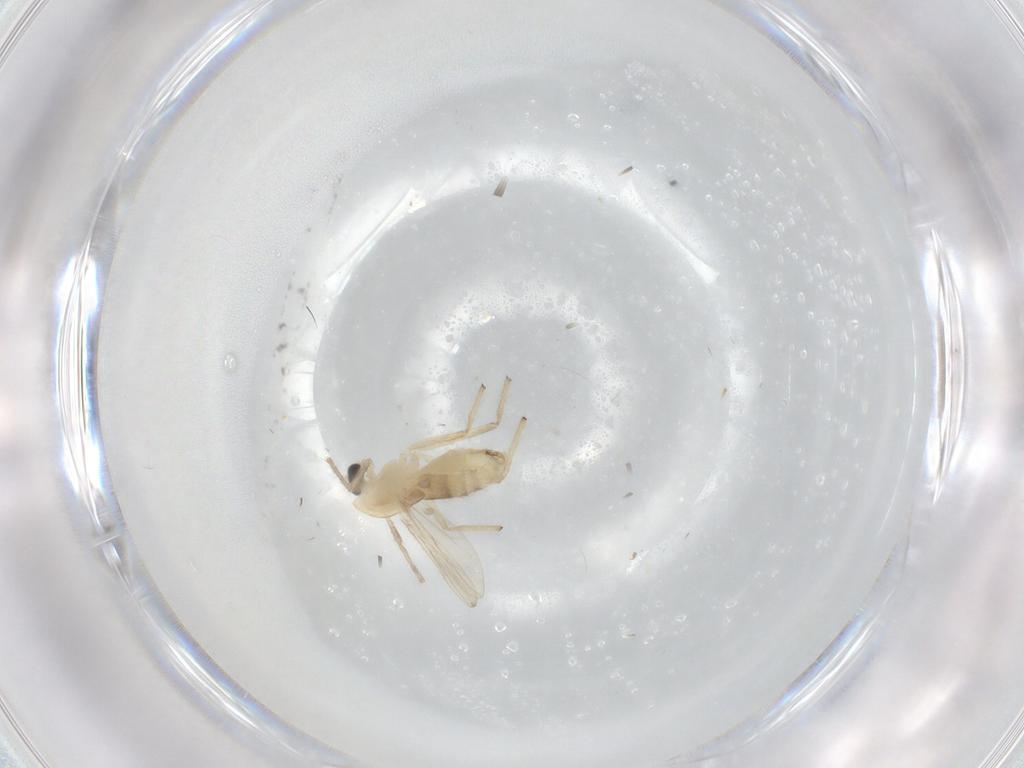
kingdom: Animalia
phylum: Arthropoda
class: Insecta
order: Diptera
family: Chironomidae
